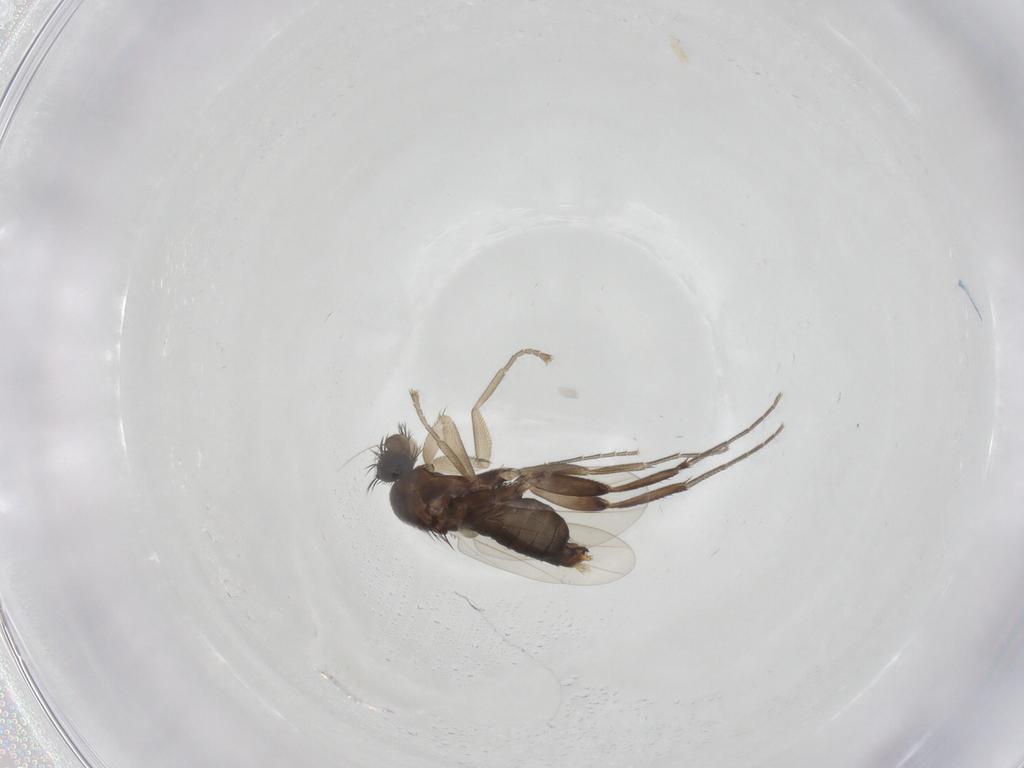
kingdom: Animalia
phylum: Arthropoda
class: Insecta
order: Diptera
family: Phoridae
